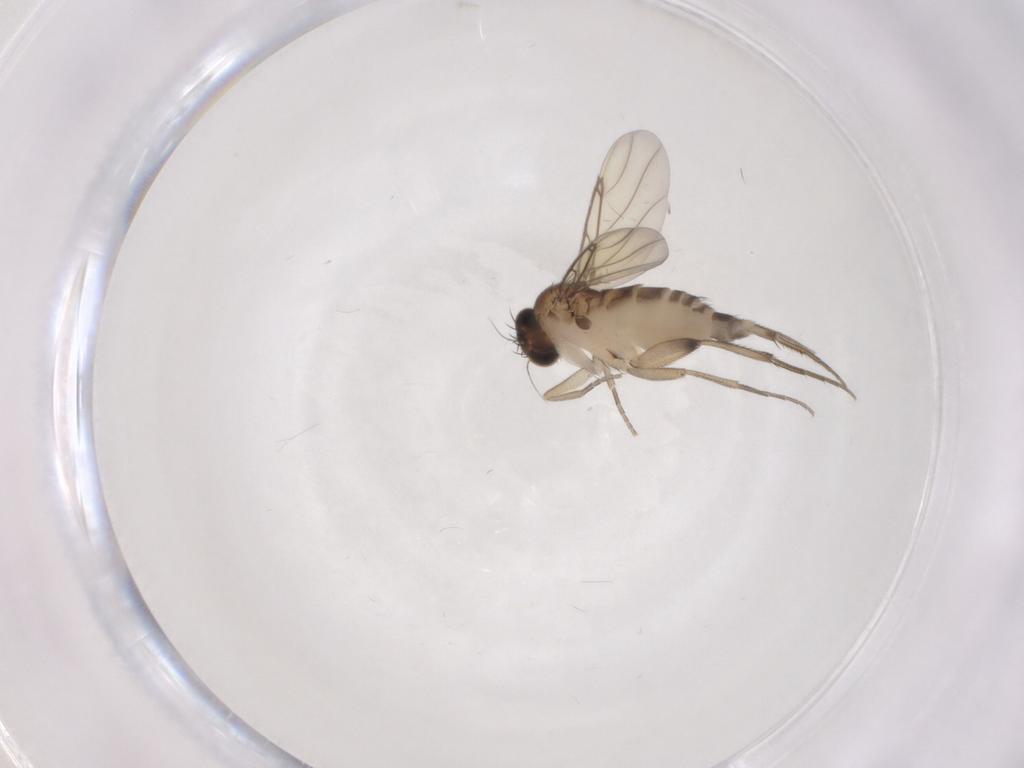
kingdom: Animalia
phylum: Arthropoda
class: Insecta
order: Diptera
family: Phoridae
